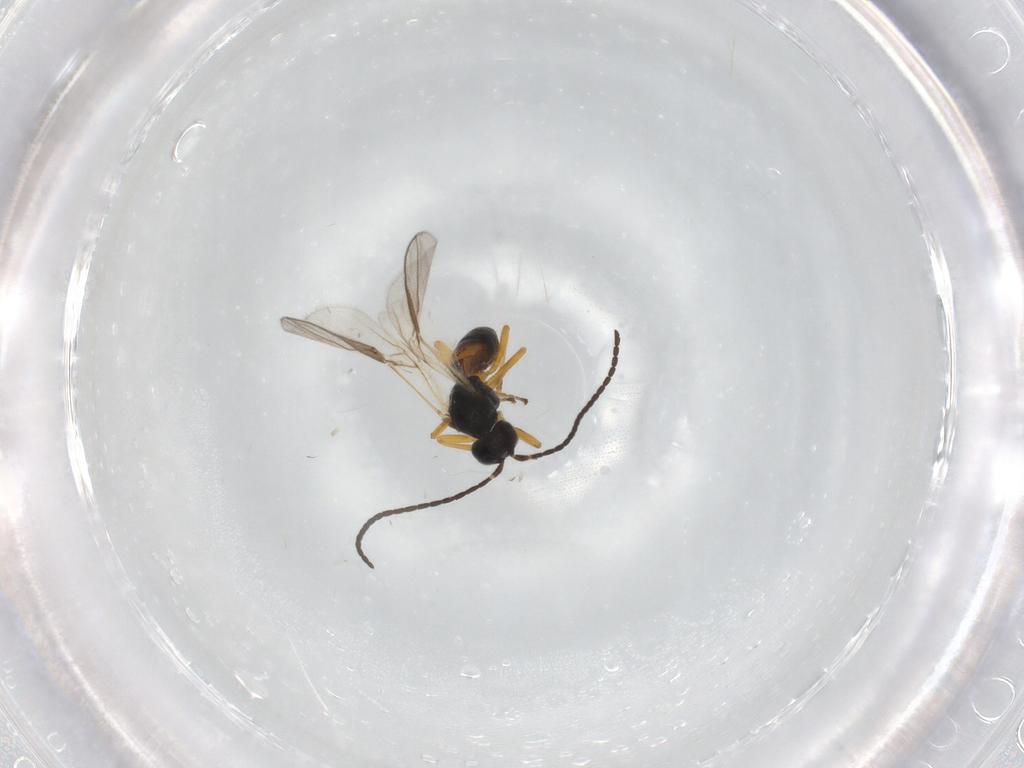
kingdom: Animalia
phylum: Arthropoda
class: Insecta
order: Hymenoptera
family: Braconidae
